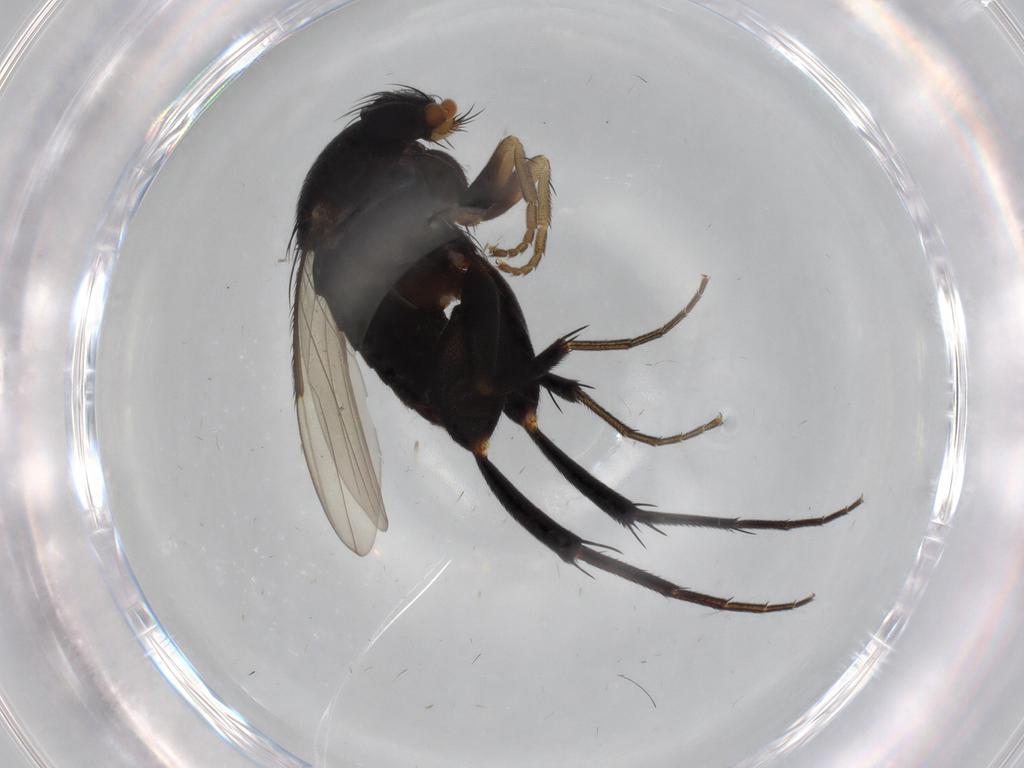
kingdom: Animalia
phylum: Arthropoda
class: Insecta
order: Diptera
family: Phoridae
